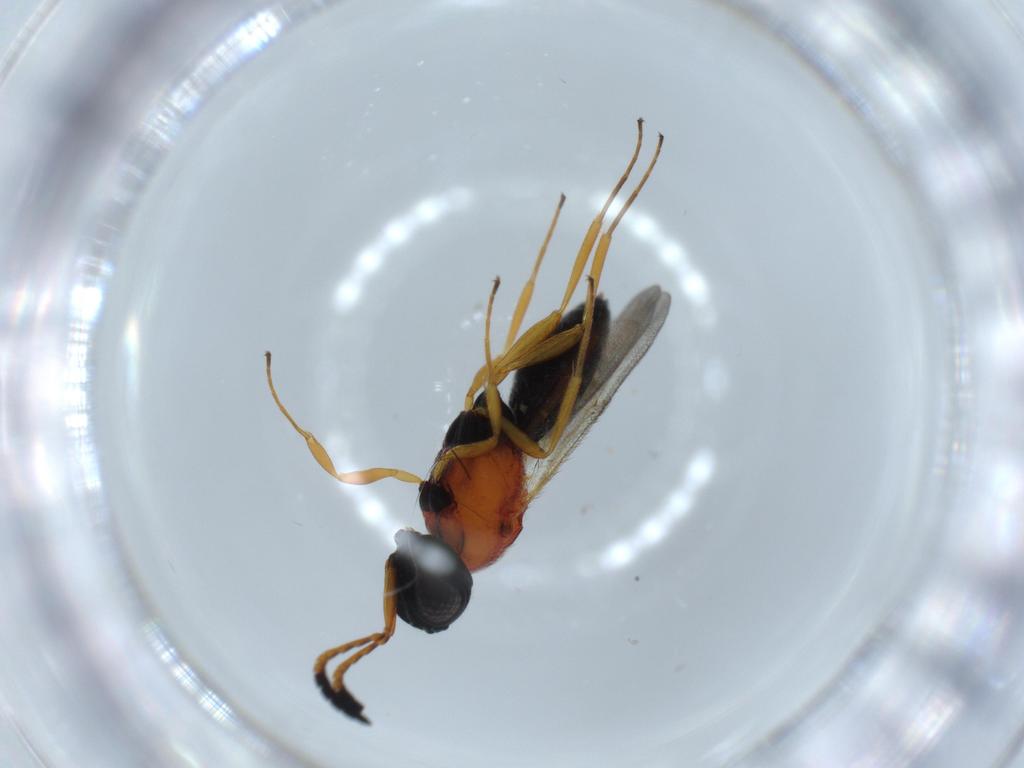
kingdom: Animalia
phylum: Arthropoda
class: Insecta
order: Hymenoptera
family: Scelionidae
